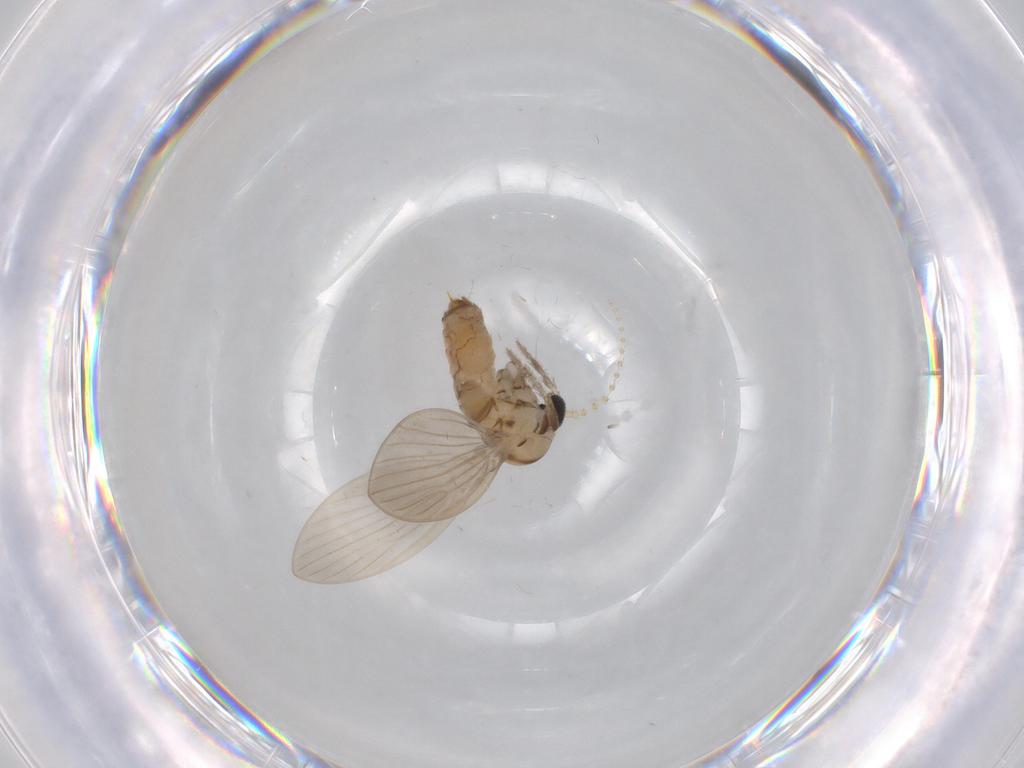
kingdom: Animalia
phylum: Arthropoda
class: Insecta
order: Diptera
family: Psychodidae
